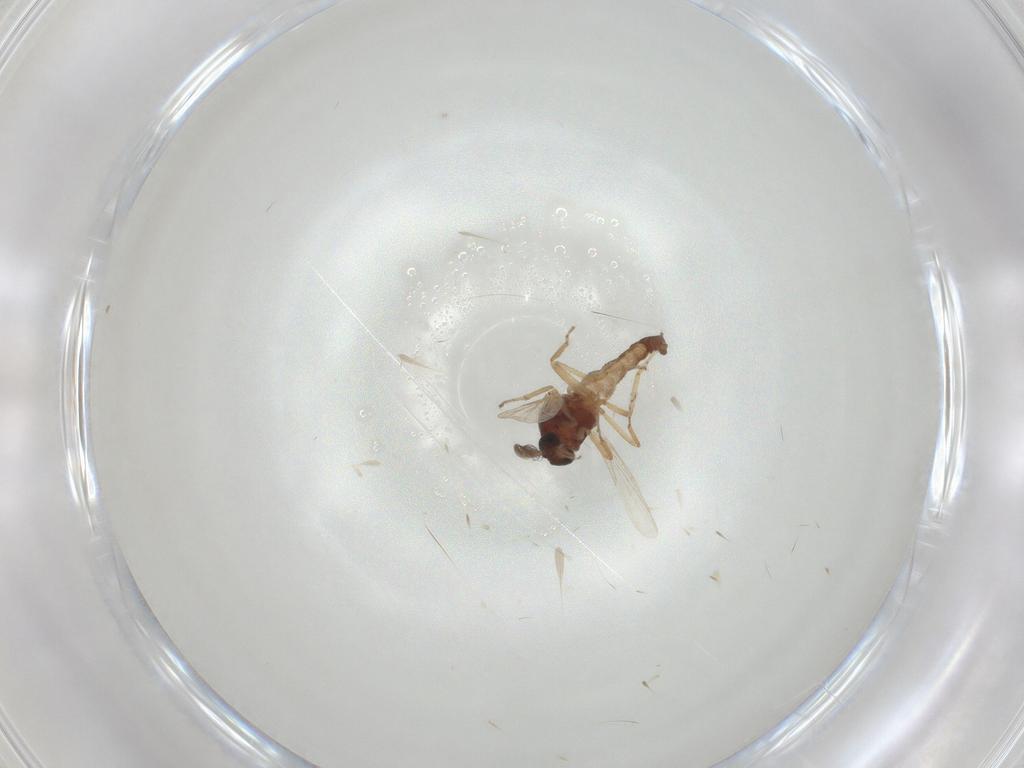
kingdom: Animalia
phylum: Arthropoda
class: Insecta
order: Diptera
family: Ceratopogonidae
